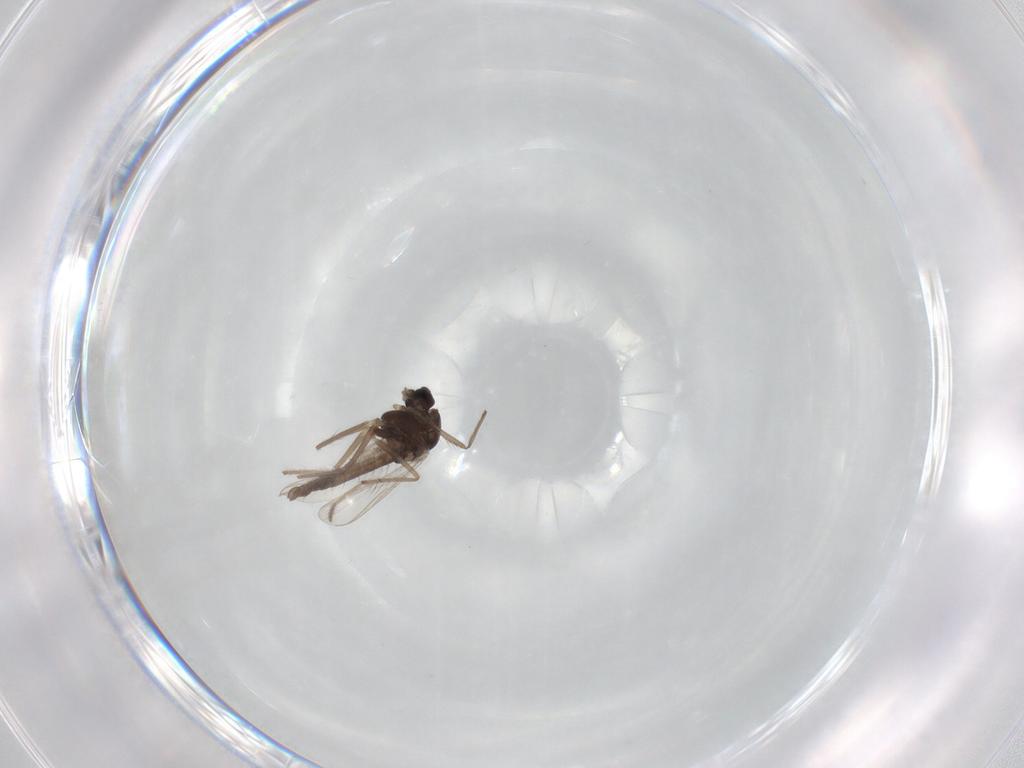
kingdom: Animalia
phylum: Arthropoda
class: Insecta
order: Diptera
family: Chironomidae
